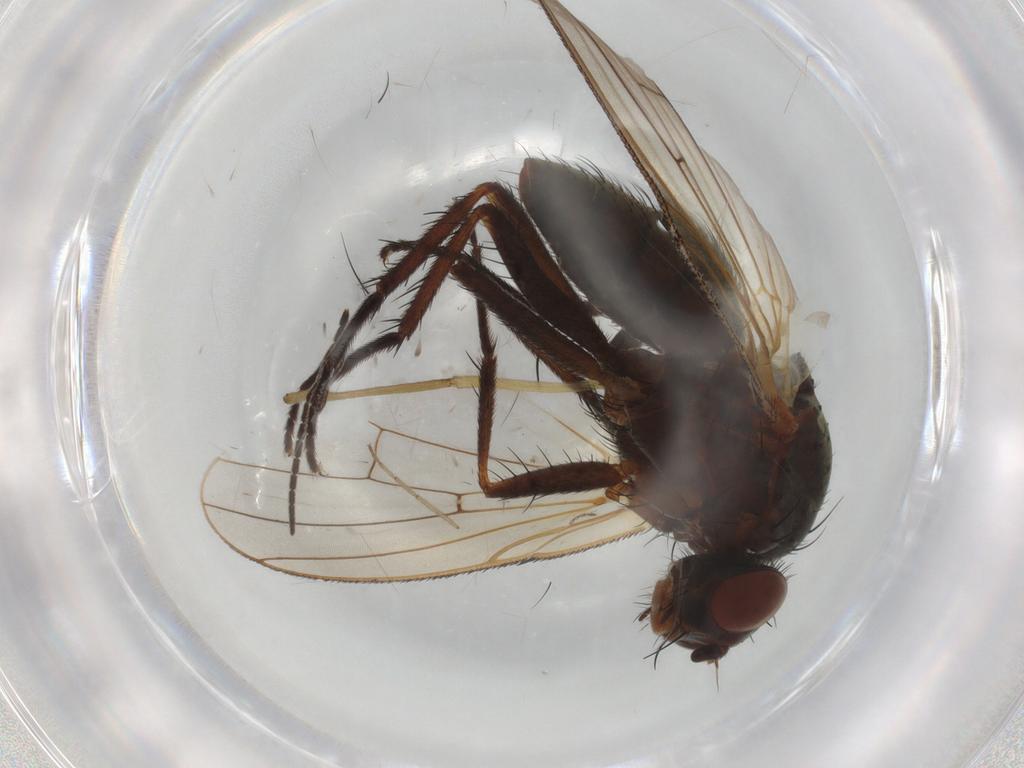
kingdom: Animalia
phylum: Arthropoda
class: Insecta
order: Diptera
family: Anthomyiidae
